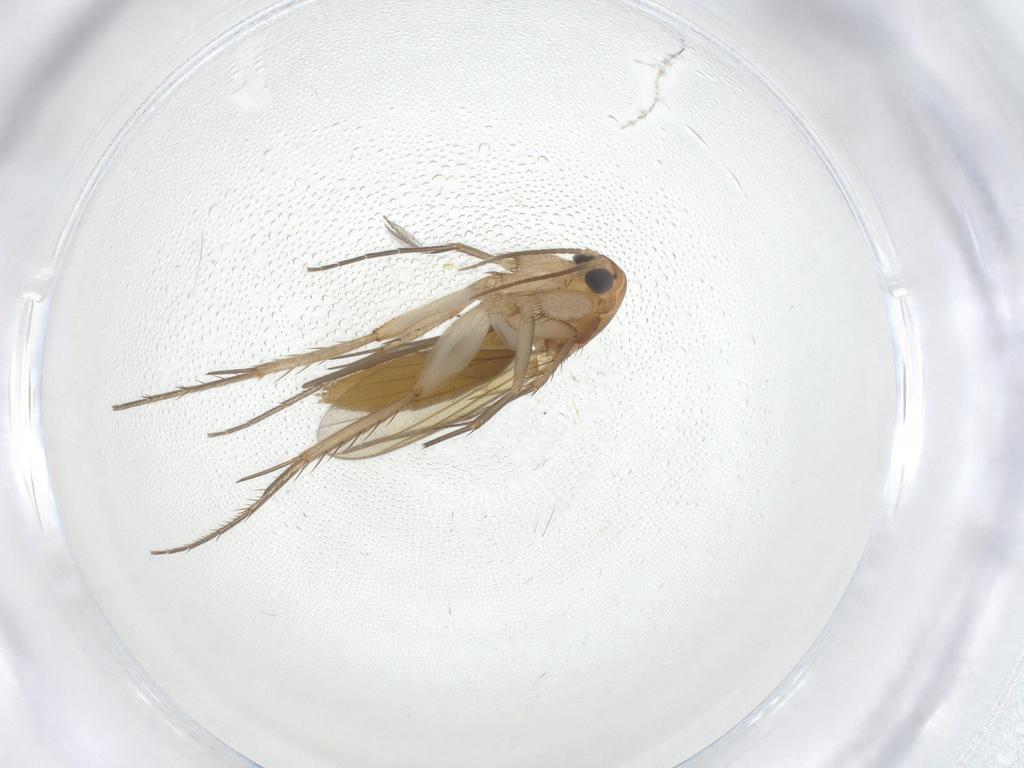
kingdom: Animalia
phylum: Arthropoda
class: Insecta
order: Diptera
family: Mycetophilidae
